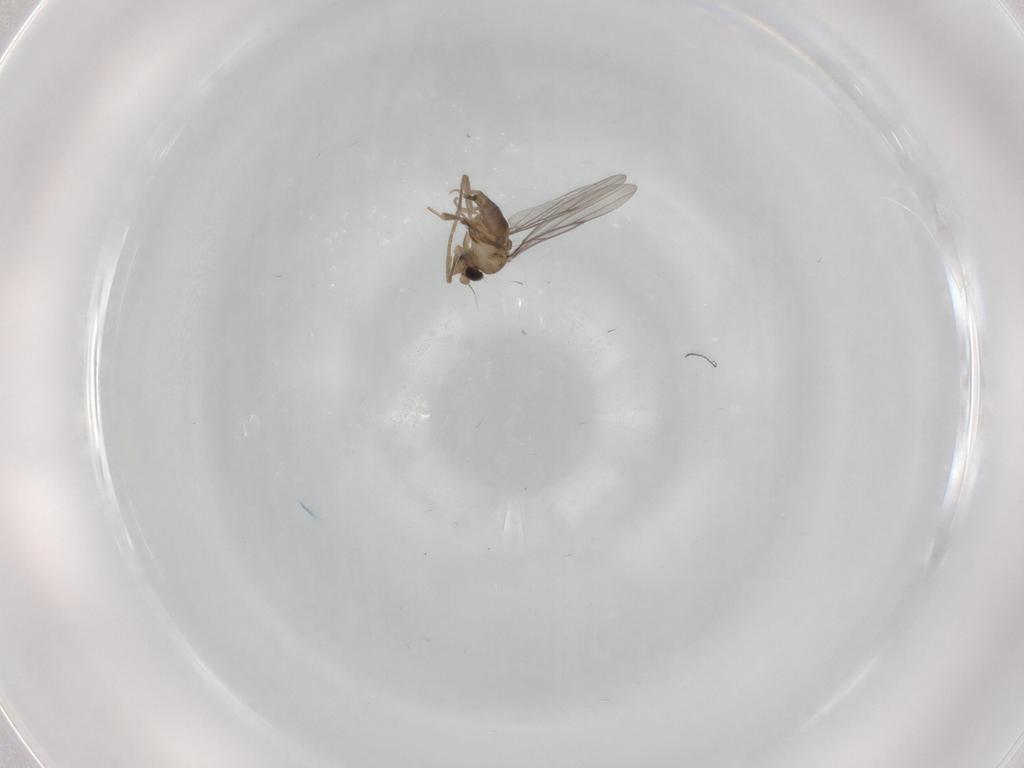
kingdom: Animalia
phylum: Arthropoda
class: Insecta
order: Diptera
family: Sciaridae
